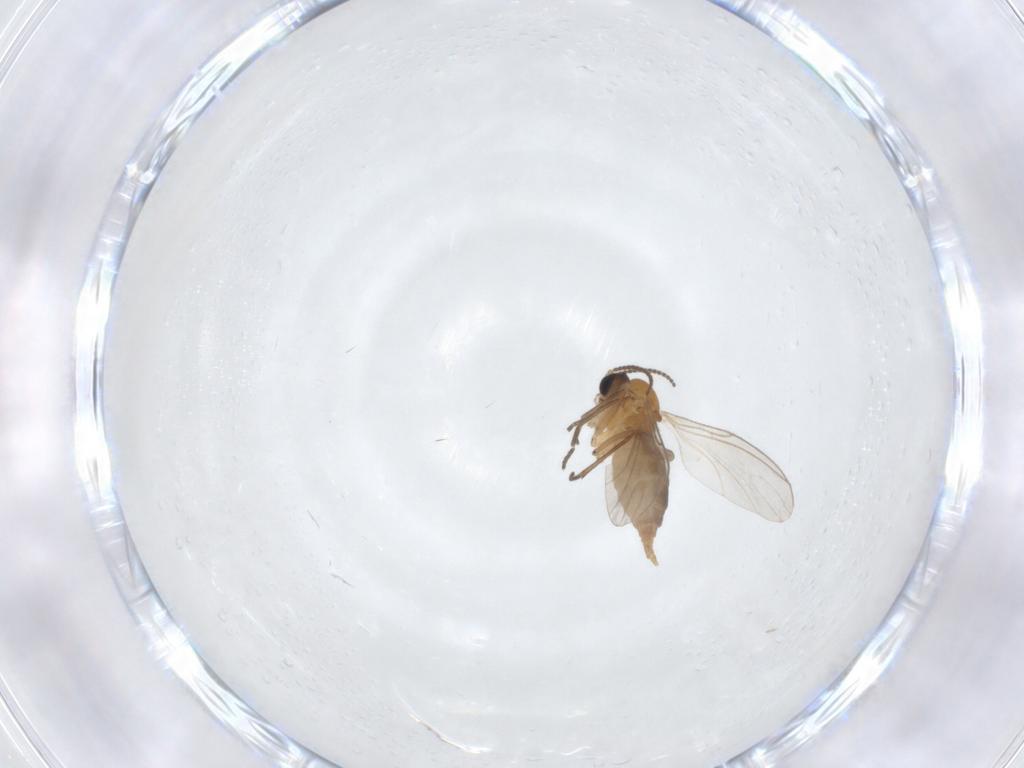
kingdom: Animalia
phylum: Arthropoda
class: Insecta
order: Diptera
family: Sciaridae
